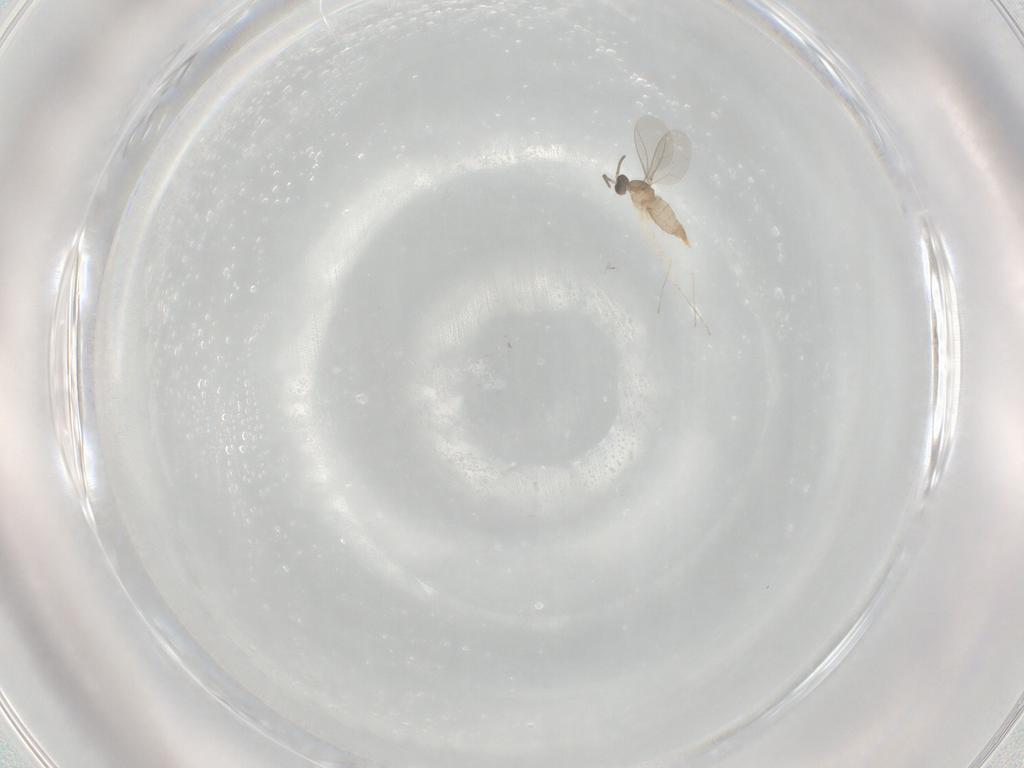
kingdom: Animalia
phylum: Arthropoda
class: Insecta
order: Diptera
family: Cecidomyiidae
